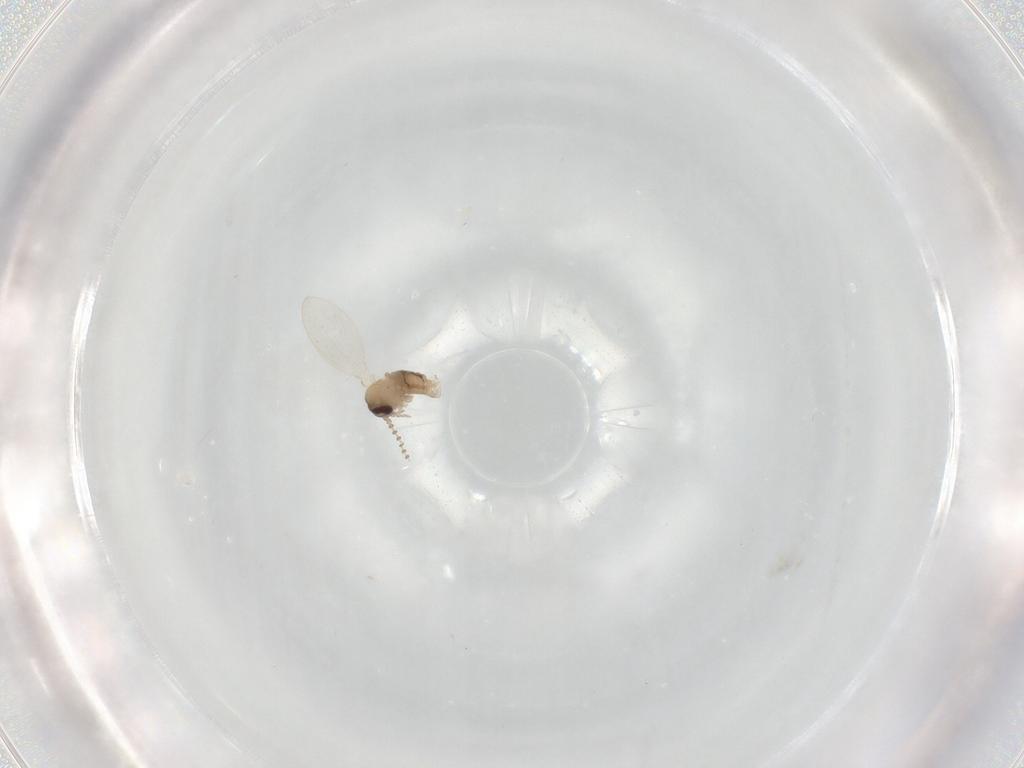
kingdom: Animalia
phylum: Arthropoda
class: Insecta
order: Diptera
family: Psychodidae
